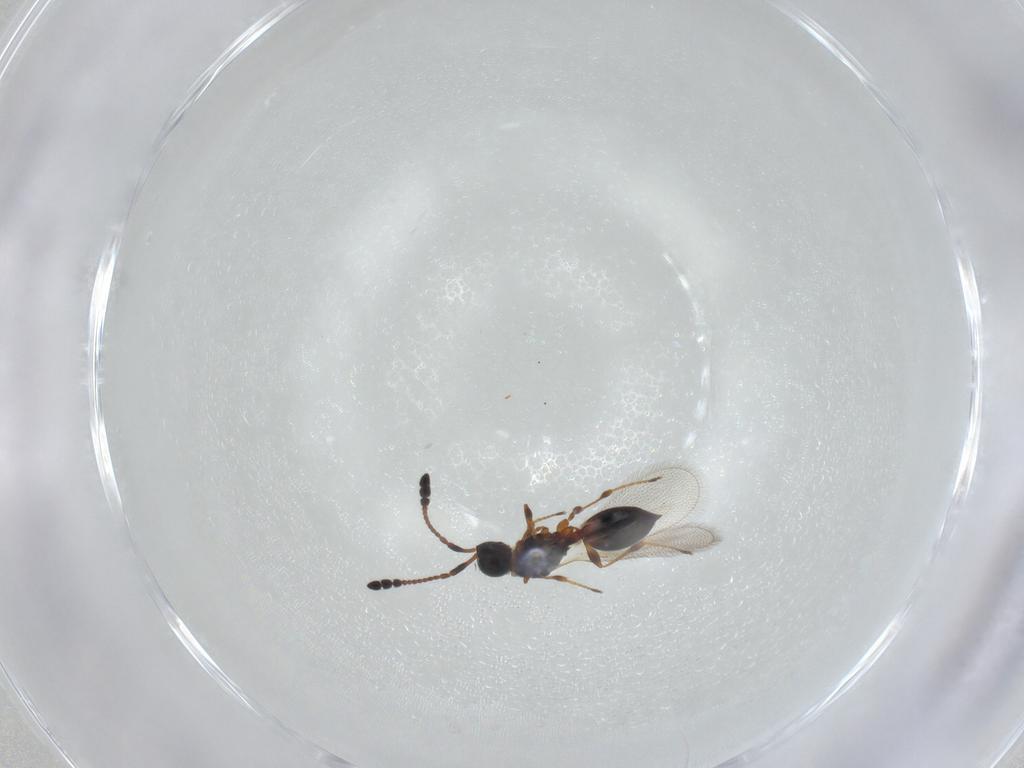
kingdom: Animalia
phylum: Arthropoda
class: Insecta
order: Hymenoptera
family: Diapriidae
